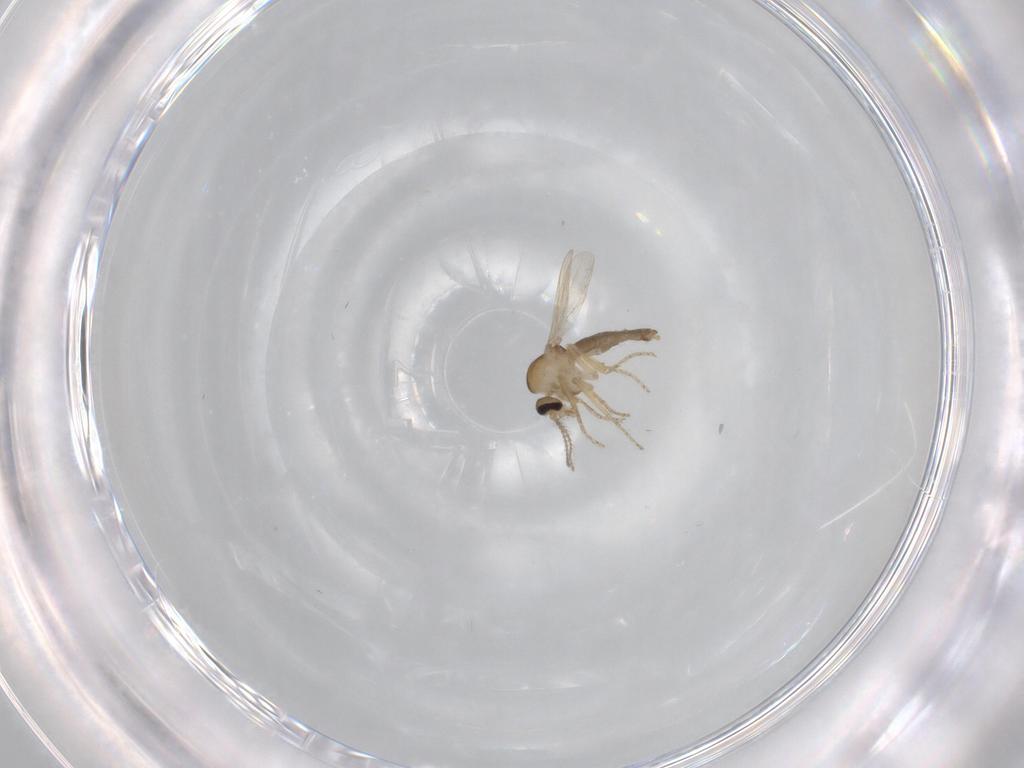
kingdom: Animalia
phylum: Arthropoda
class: Insecta
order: Diptera
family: Ceratopogonidae
